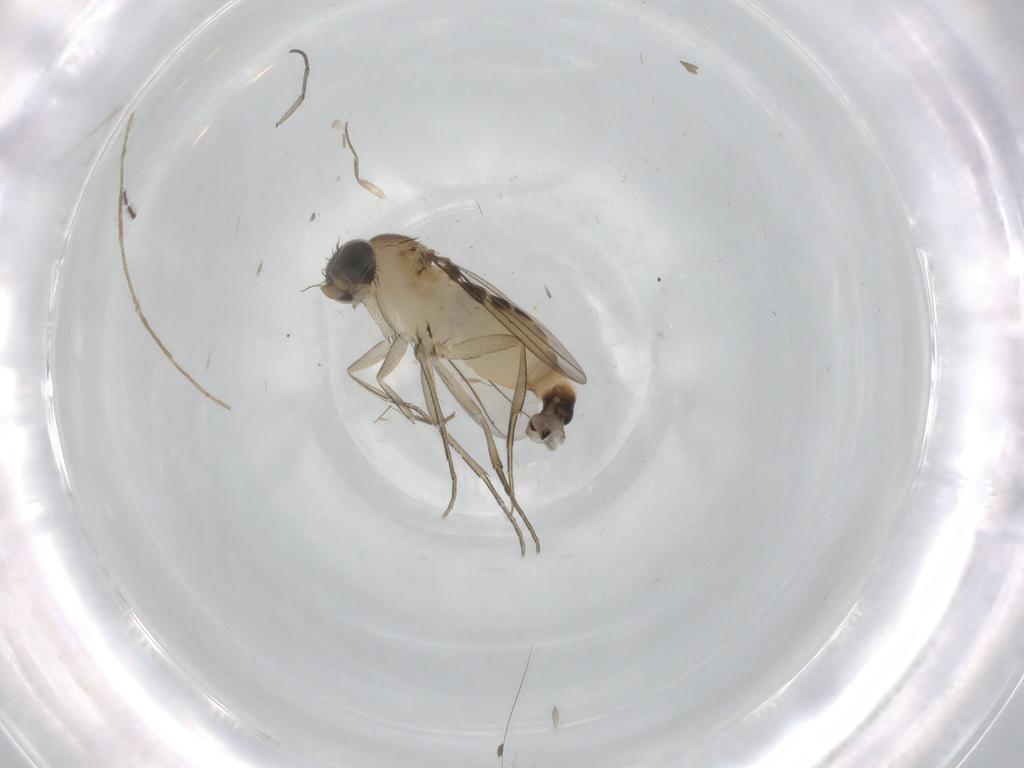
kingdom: Animalia
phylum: Arthropoda
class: Insecta
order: Diptera
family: Phoridae
